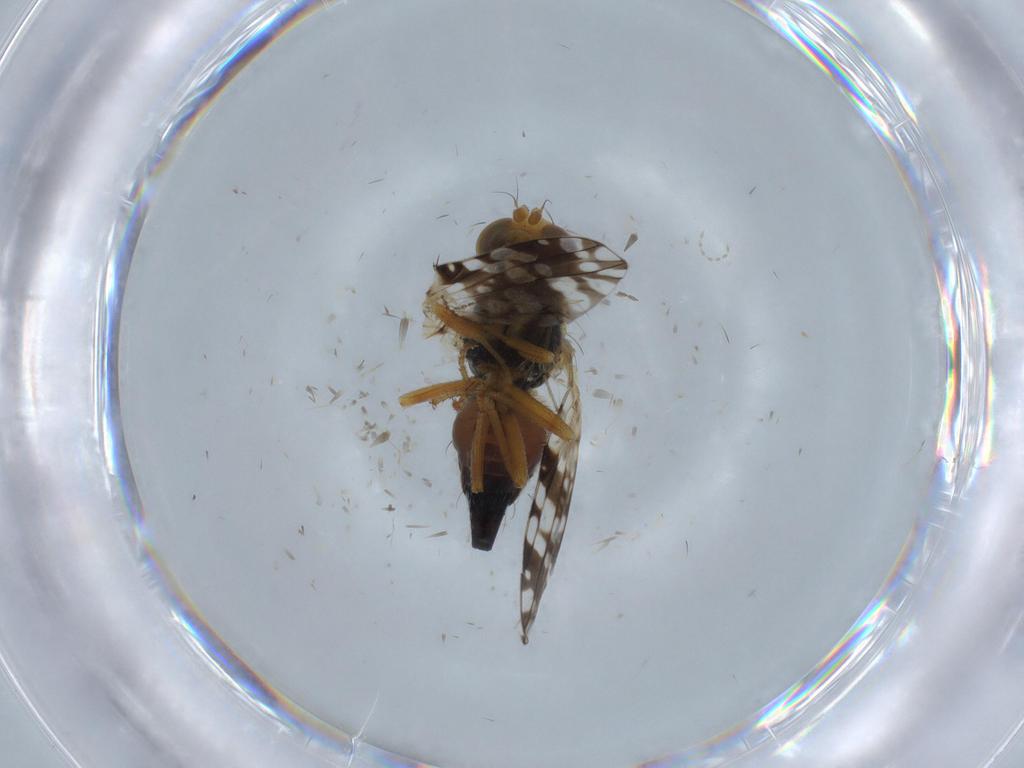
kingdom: Animalia
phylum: Arthropoda
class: Insecta
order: Diptera
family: Tephritidae
